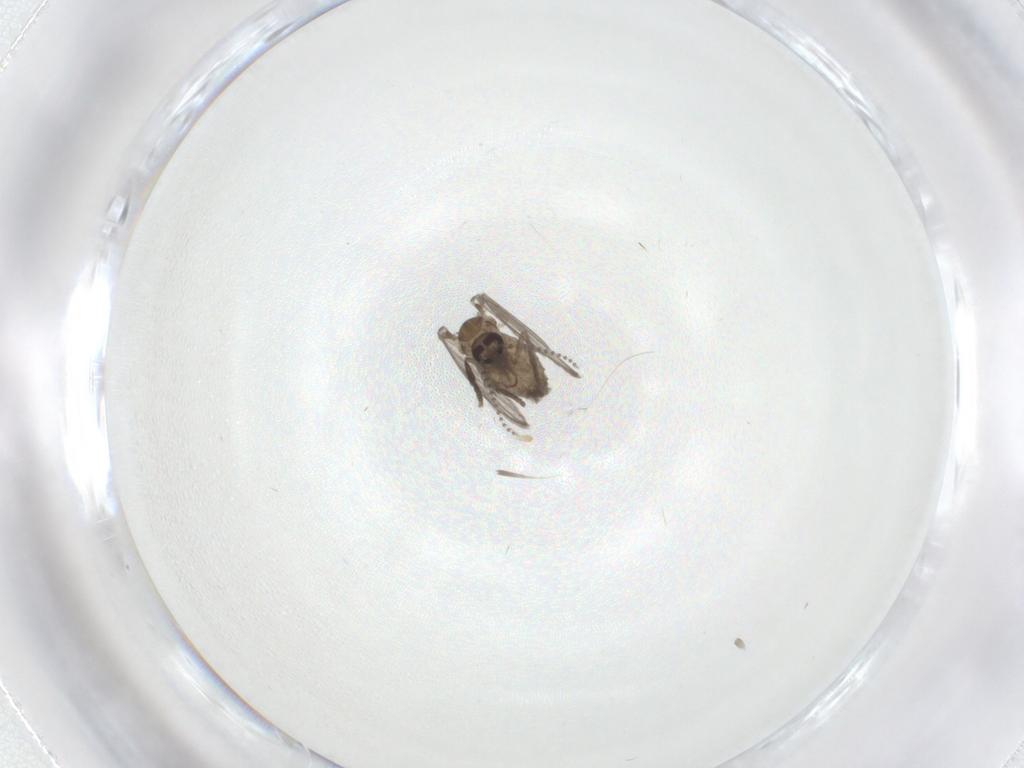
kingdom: Animalia
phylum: Arthropoda
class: Insecta
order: Diptera
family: Psychodidae
